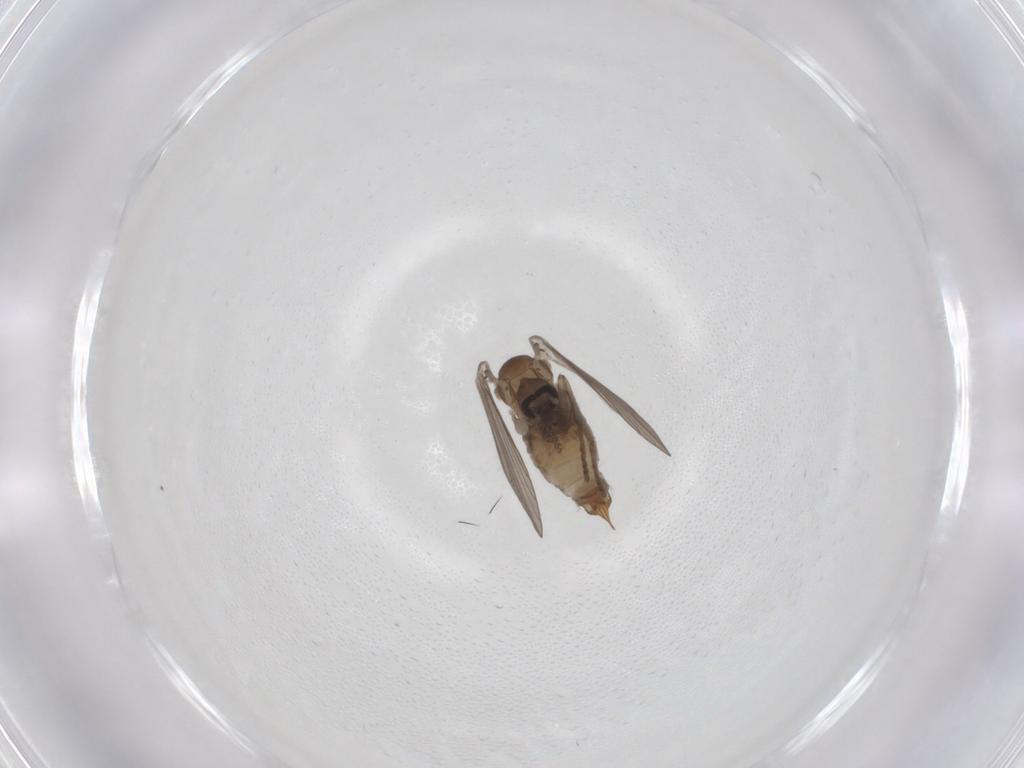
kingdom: Animalia
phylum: Arthropoda
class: Insecta
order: Diptera
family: Psychodidae
